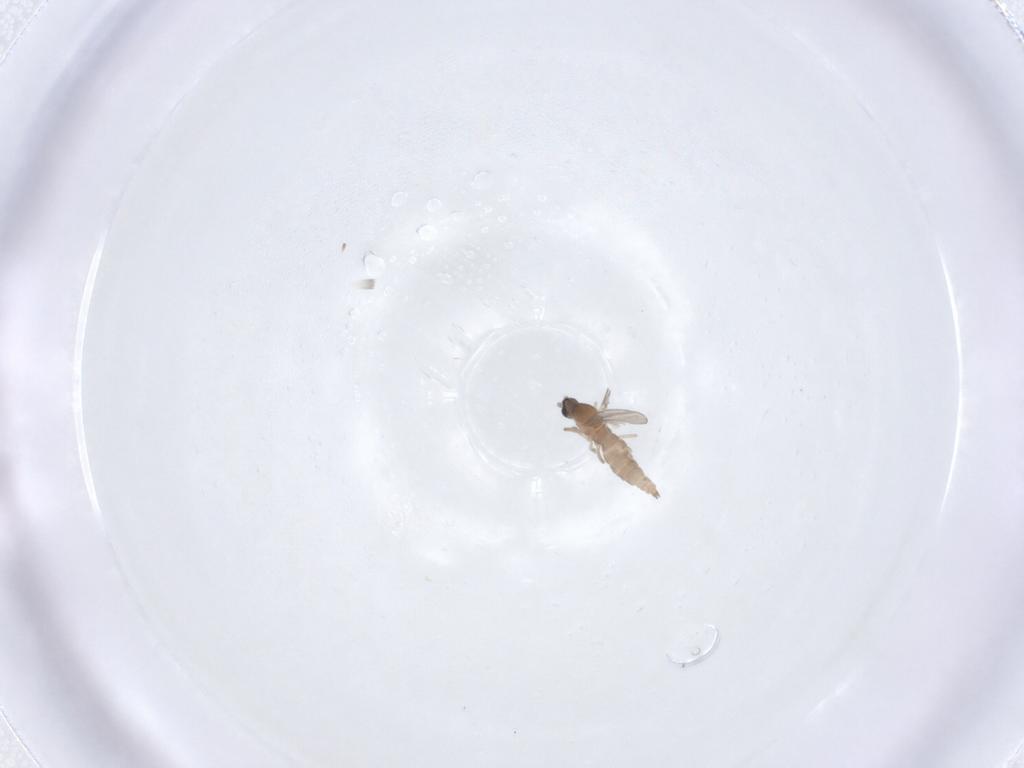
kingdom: Animalia
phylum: Arthropoda
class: Insecta
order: Diptera
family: Cecidomyiidae
